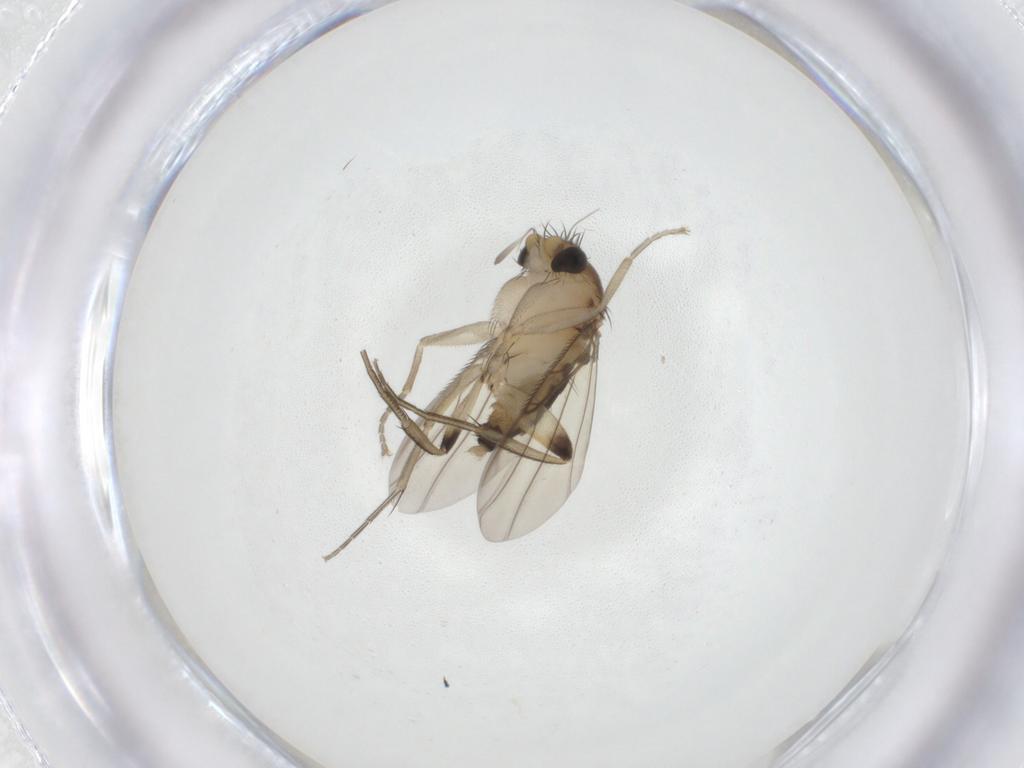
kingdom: Animalia
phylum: Arthropoda
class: Insecta
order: Diptera
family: Phoridae
